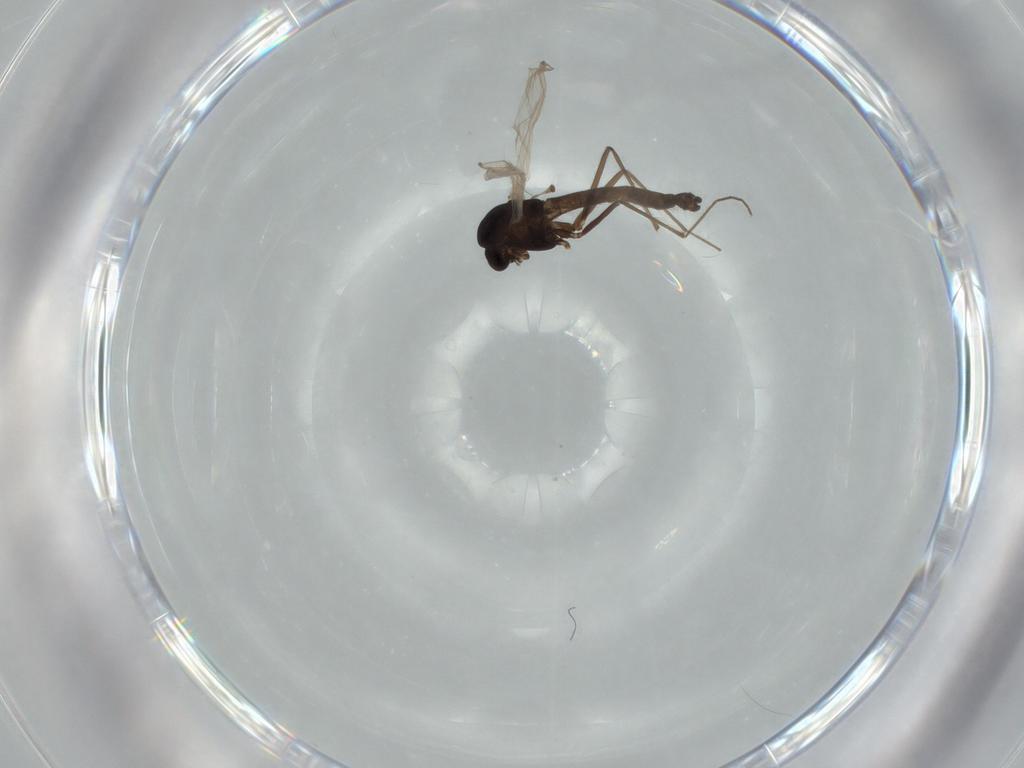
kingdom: Animalia
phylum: Arthropoda
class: Insecta
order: Diptera
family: Chironomidae
